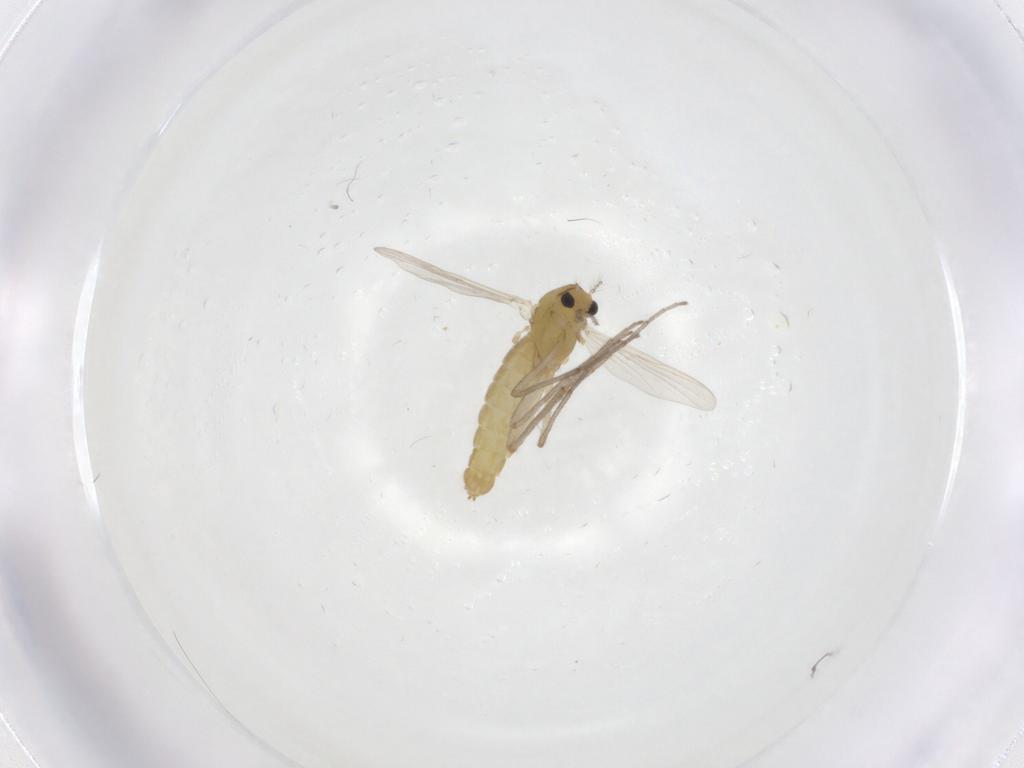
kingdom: Animalia
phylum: Arthropoda
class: Insecta
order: Diptera
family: Chironomidae
